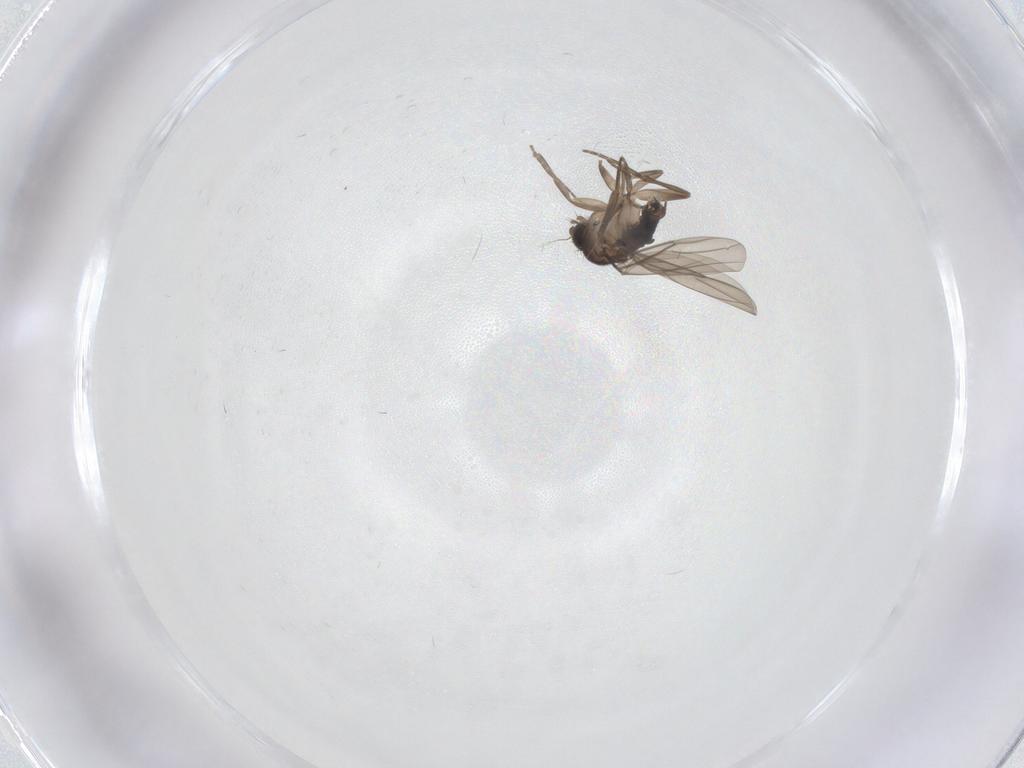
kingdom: Animalia
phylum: Arthropoda
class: Insecta
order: Diptera
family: Phoridae
